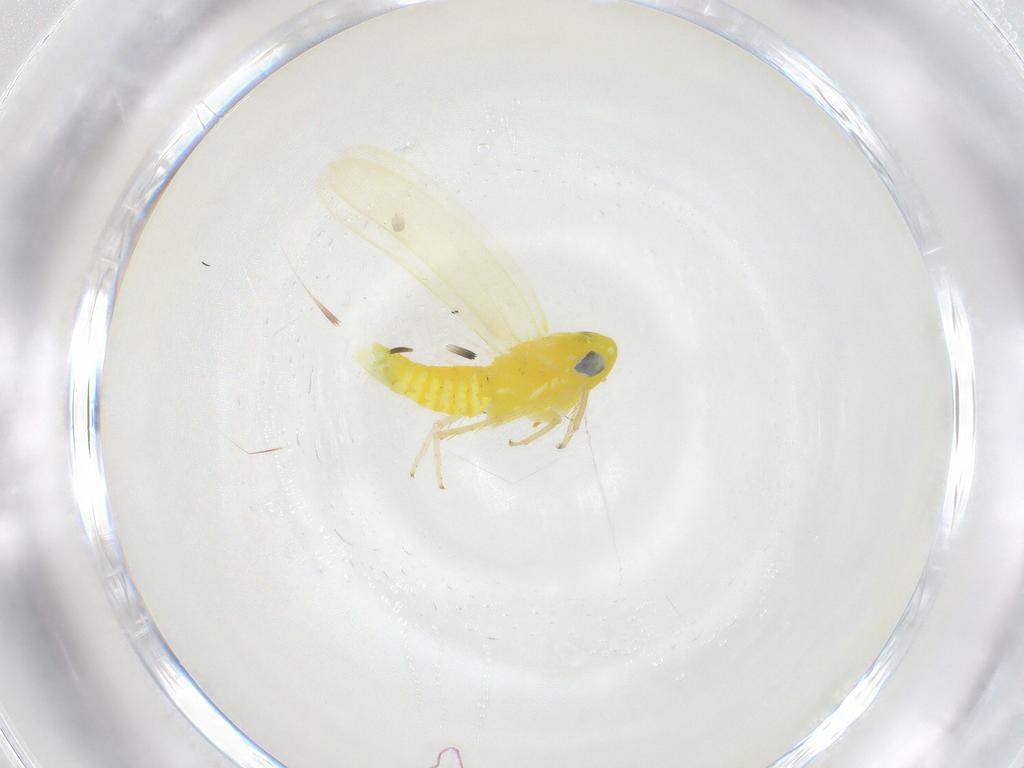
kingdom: Animalia
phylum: Arthropoda
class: Insecta
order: Hemiptera
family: Cicadellidae
